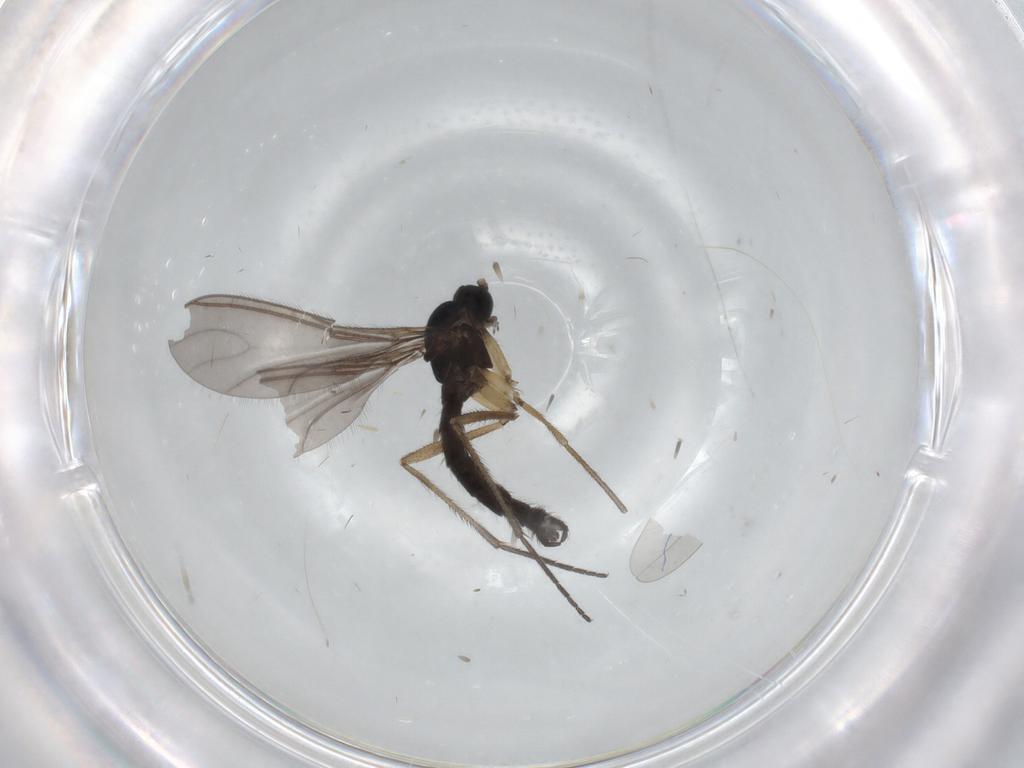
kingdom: Animalia
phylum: Arthropoda
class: Insecta
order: Diptera
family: Sciaridae
